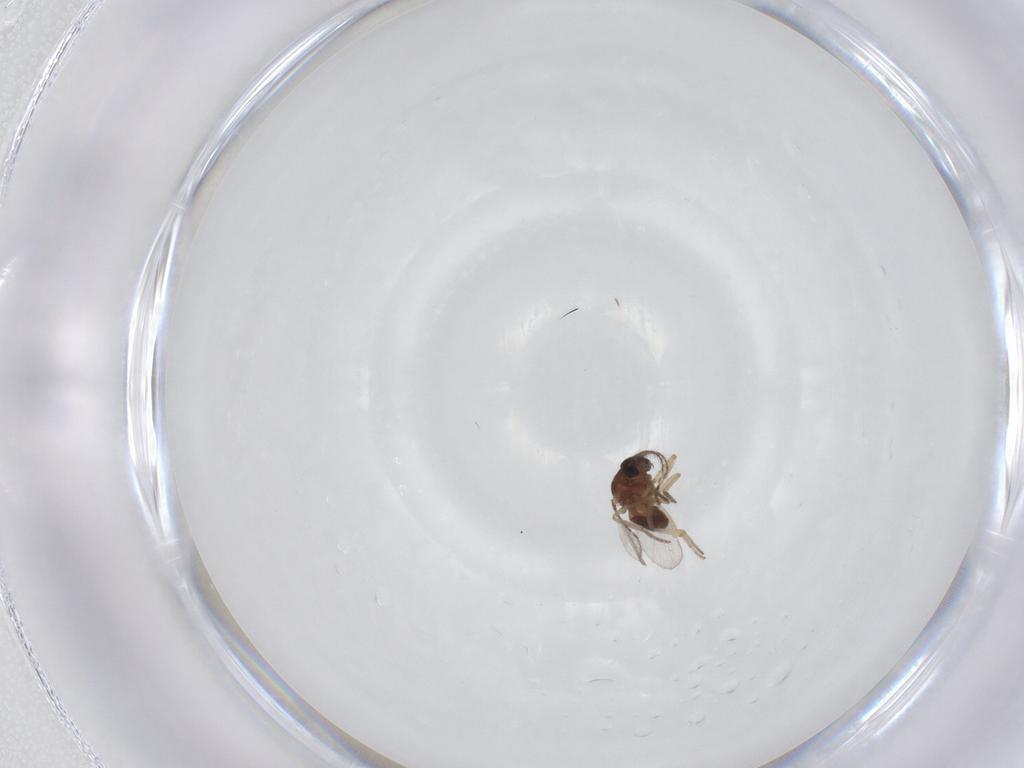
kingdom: Animalia
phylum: Arthropoda
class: Insecta
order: Diptera
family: Ceratopogonidae
